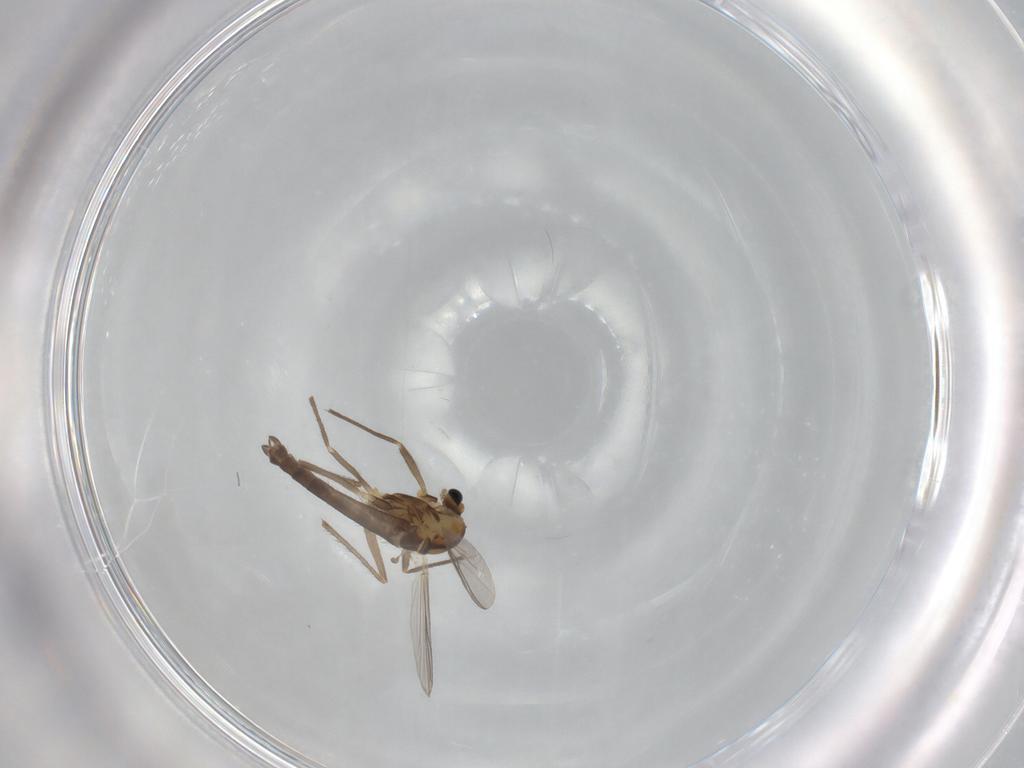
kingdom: Animalia
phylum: Arthropoda
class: Insecta
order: Diptera
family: Chironomidae
